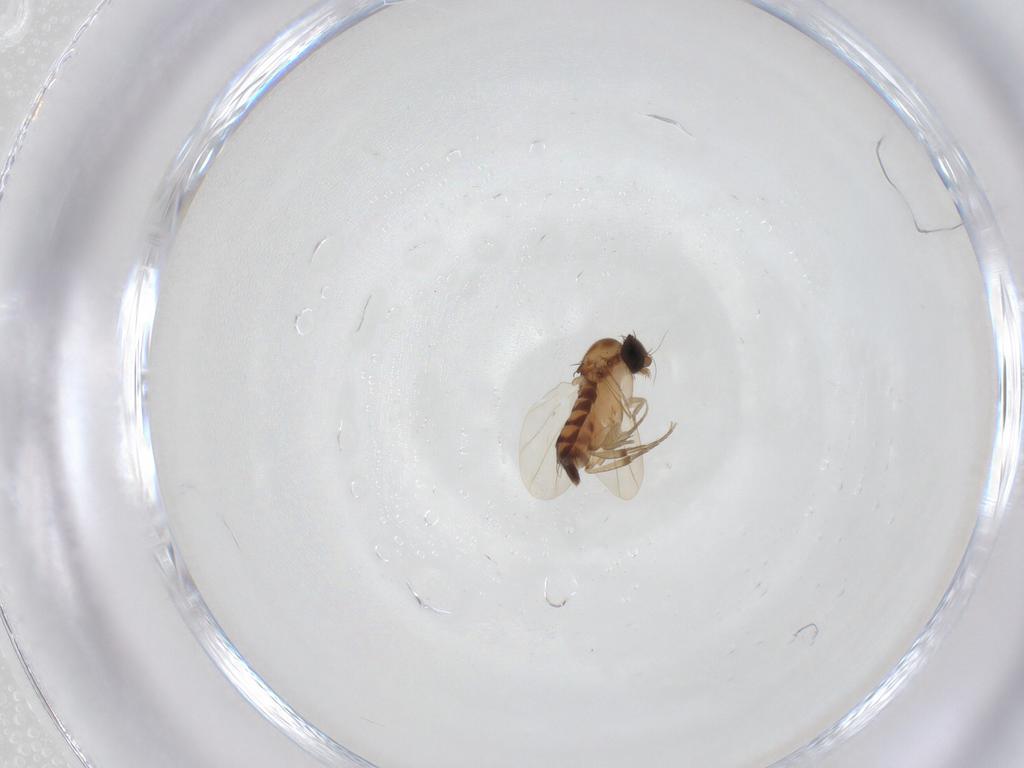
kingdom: Animalia
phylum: Arthropoda
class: Insecta
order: Diptera
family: Phoridae
